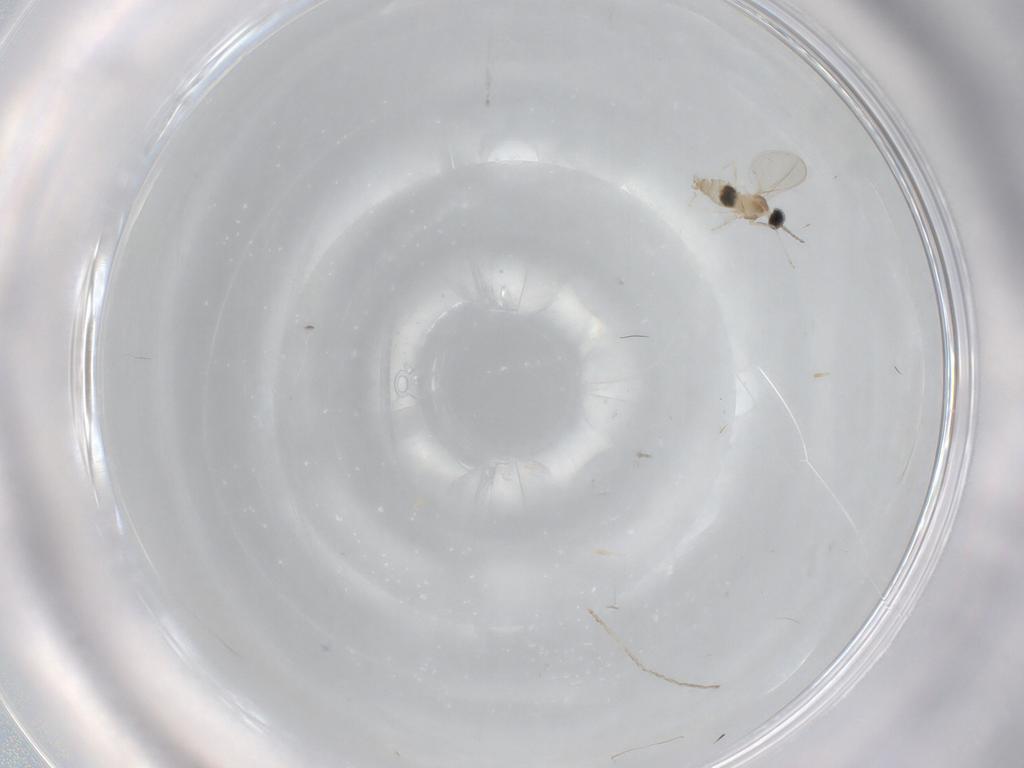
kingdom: Animalia
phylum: Arthropoda
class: Insecta
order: Diptera
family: Cecidomyiidae
